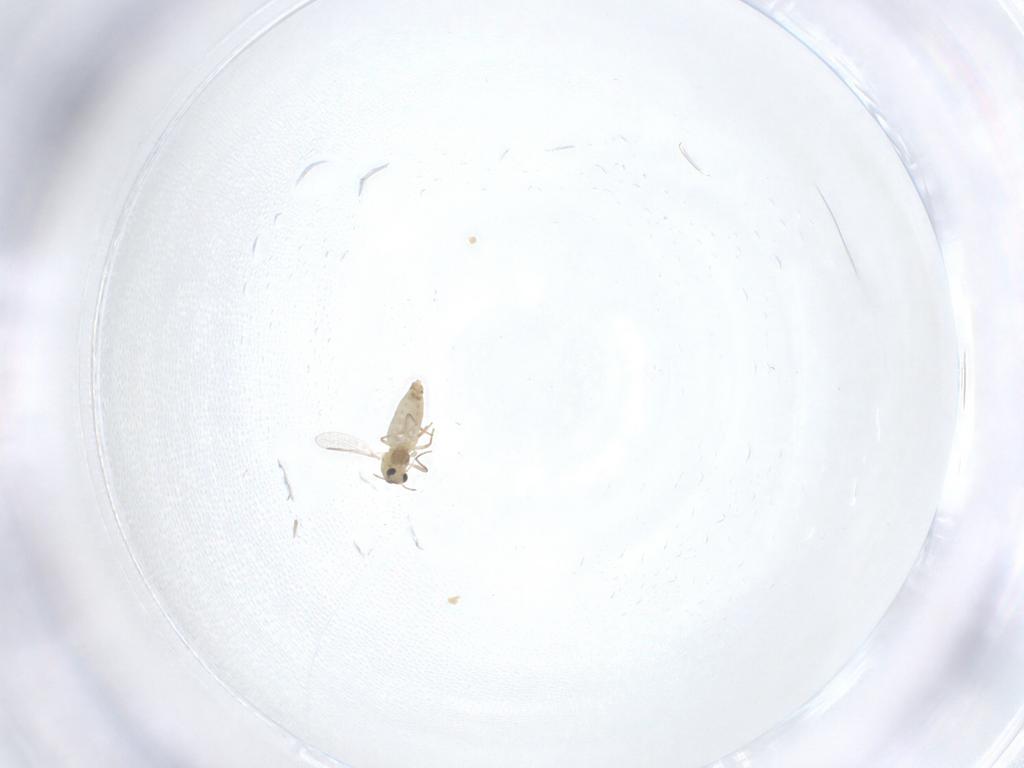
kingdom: Animalia
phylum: Arthropoda
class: Insecta
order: Diptera
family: Chironomidae
